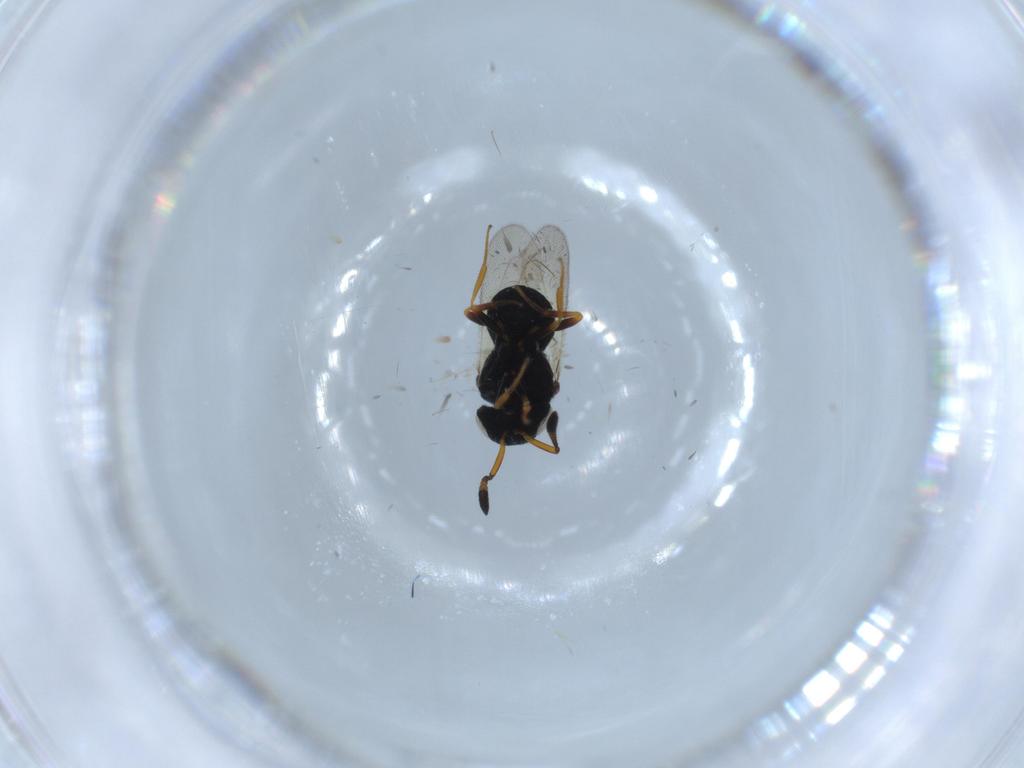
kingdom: Animalia
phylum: Arthropoda
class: Insecta
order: Hymenoptera
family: Scelionidae
